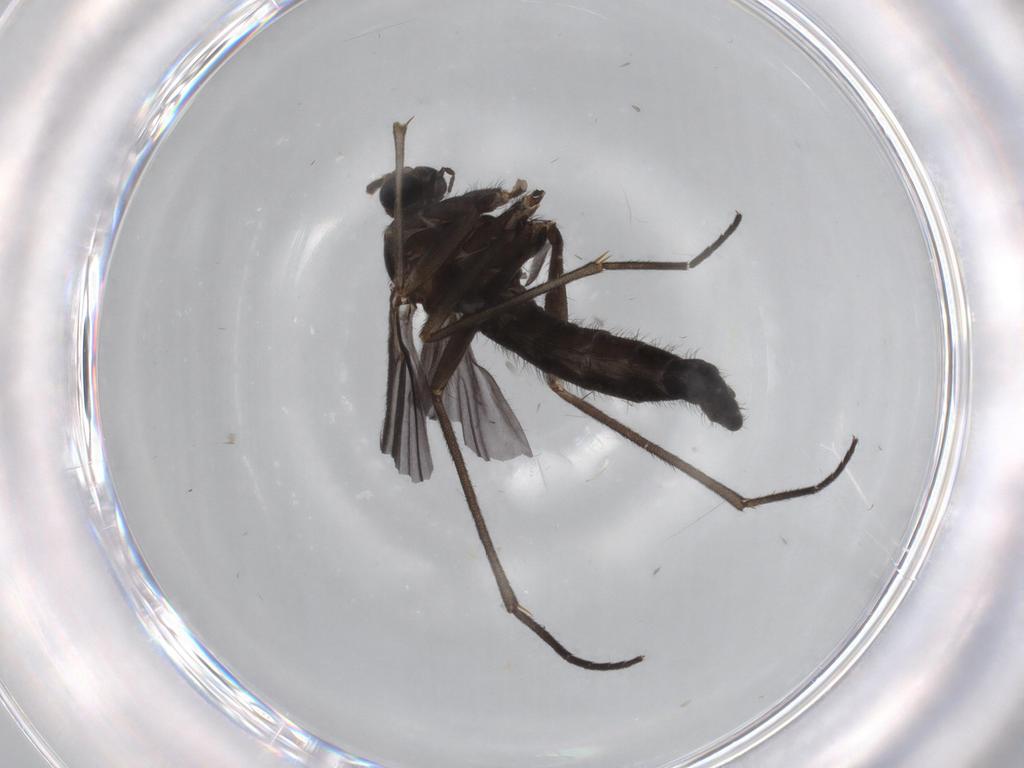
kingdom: Animalia
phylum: Arthropoda
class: Insecta
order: Diptera
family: Sciaridae
